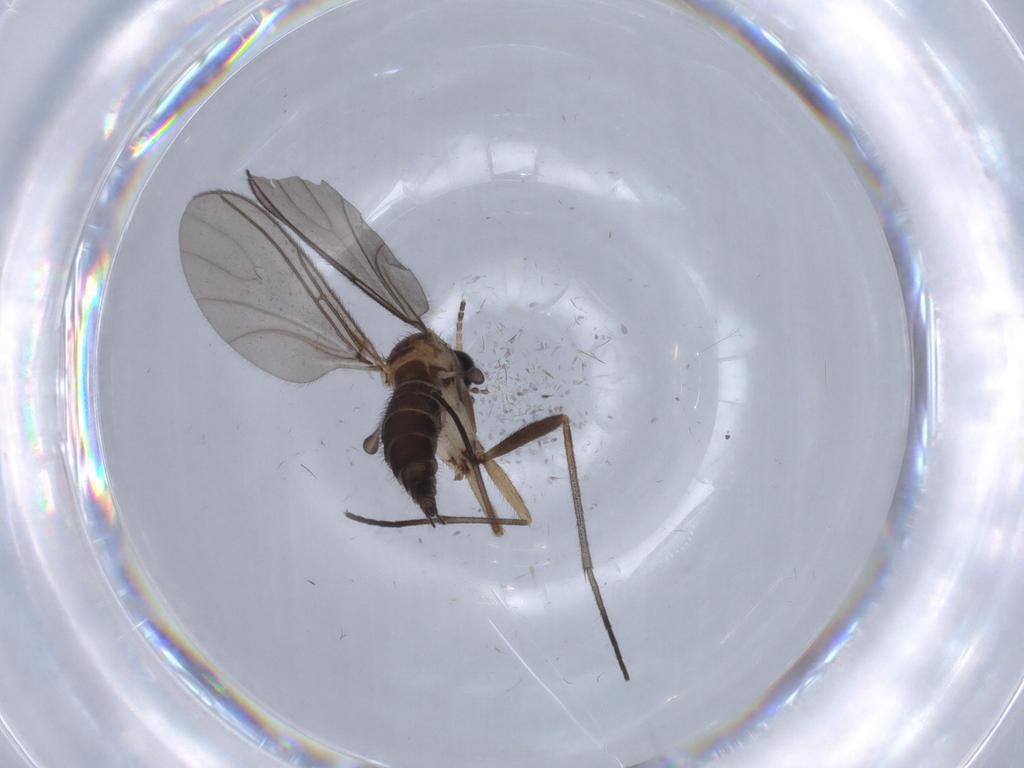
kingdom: Animalia
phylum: Arthropoda
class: Insecta
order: Diptera
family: Sciaridae
